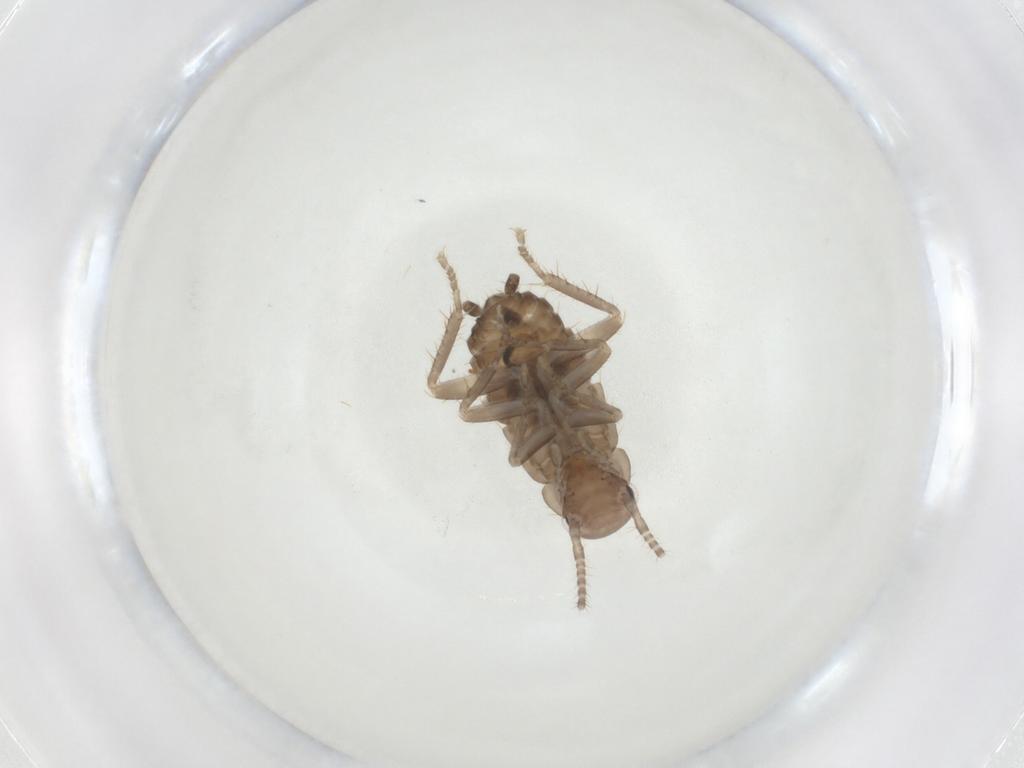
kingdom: Animalia
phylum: Arthropoda
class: Insecta
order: Blattodea
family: Ectobiidae
